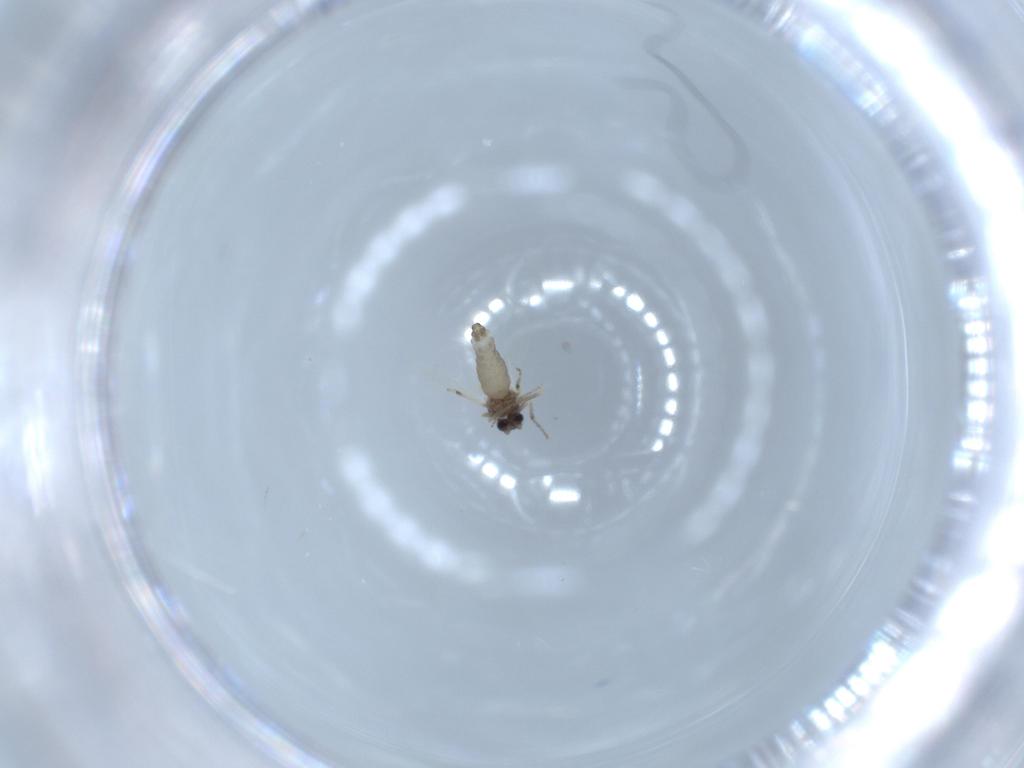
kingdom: Animalia
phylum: Arthropoda
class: Insecta
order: Diptera
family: Ceratopogonidae
